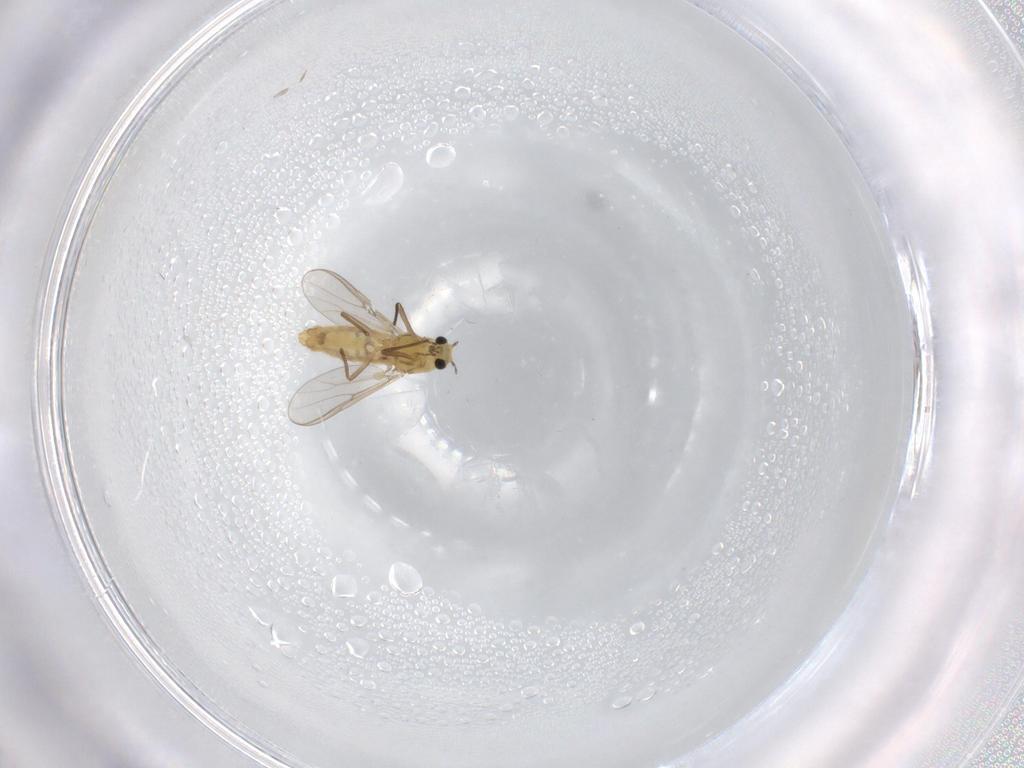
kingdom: Animalia
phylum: Arthropoda
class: Insecta
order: Diptera
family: Chironomidae
